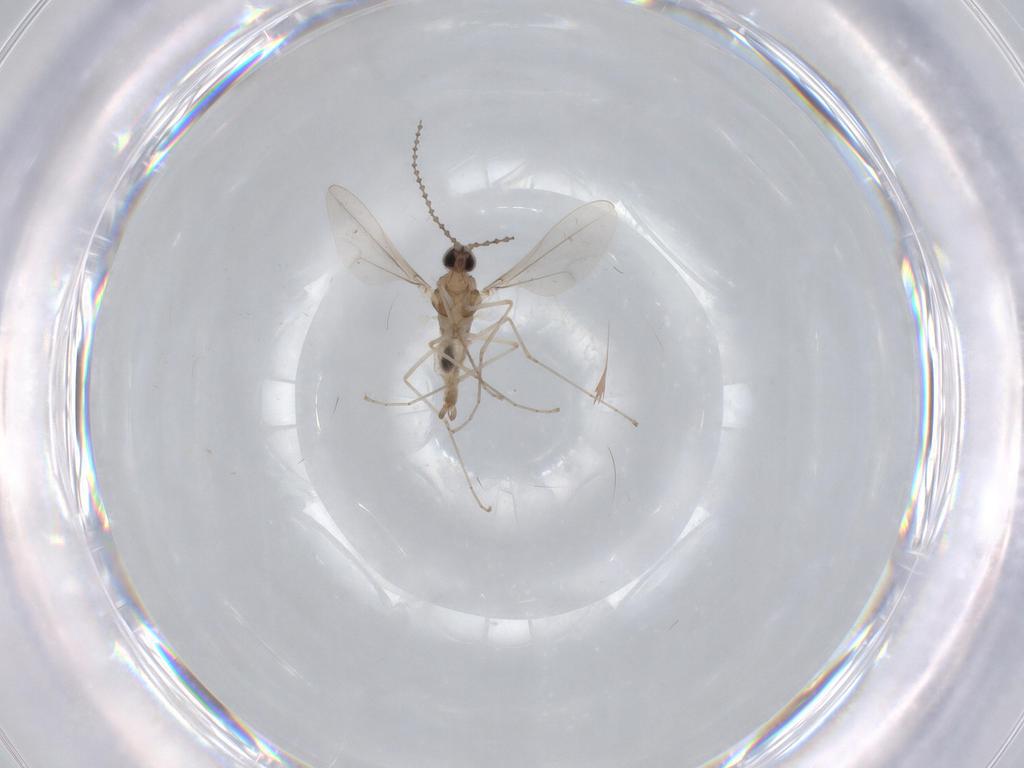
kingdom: Animalia
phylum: Arthropoda
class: Insecta
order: Diptera
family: Cecidomyiidae
